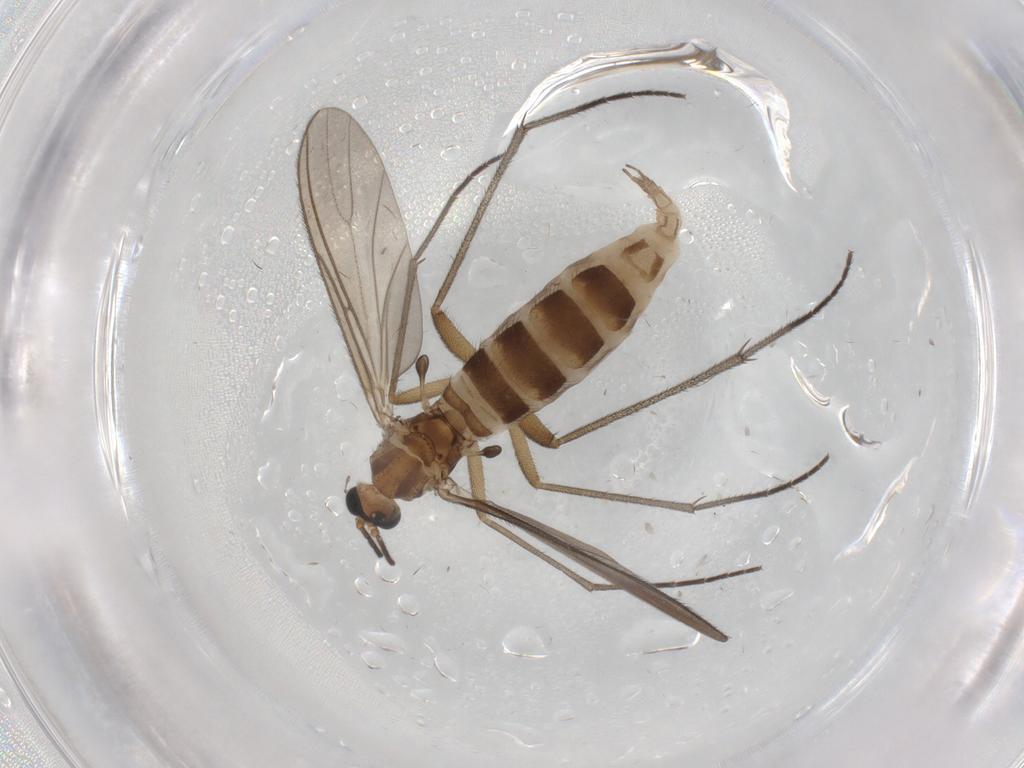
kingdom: Animalia
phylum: Arthropoda
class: Insecta
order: Diptera
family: Sciaridae
